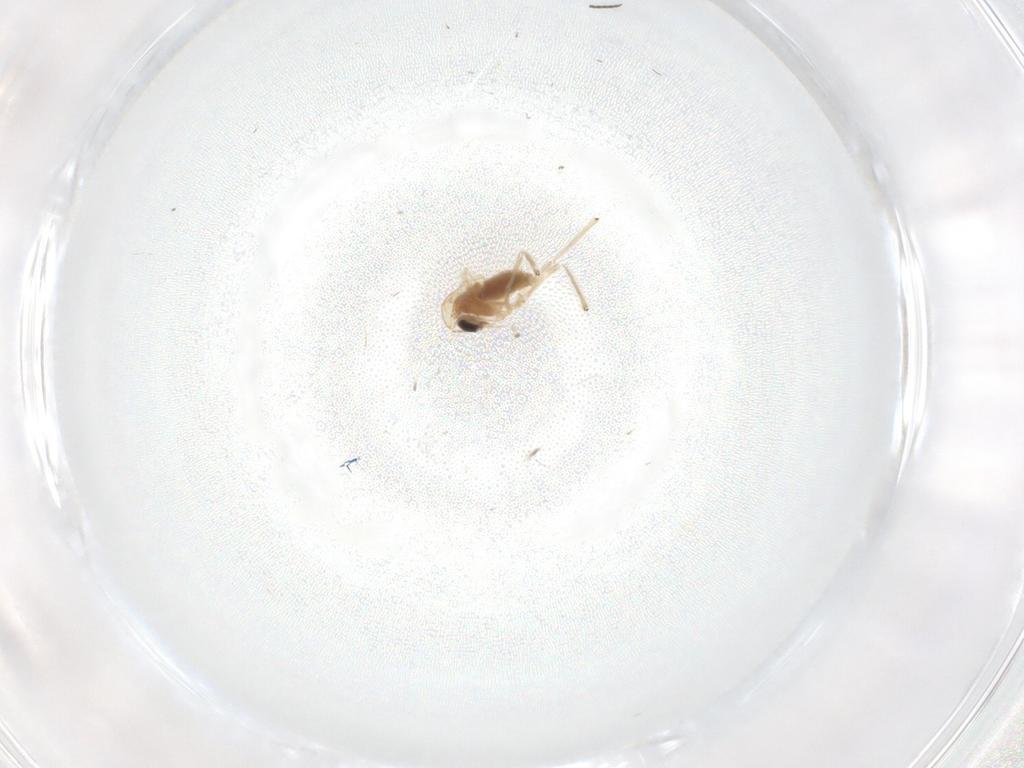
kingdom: Animalia
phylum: Arthropoda
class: Insecta
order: Diptera
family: Sciaridae
